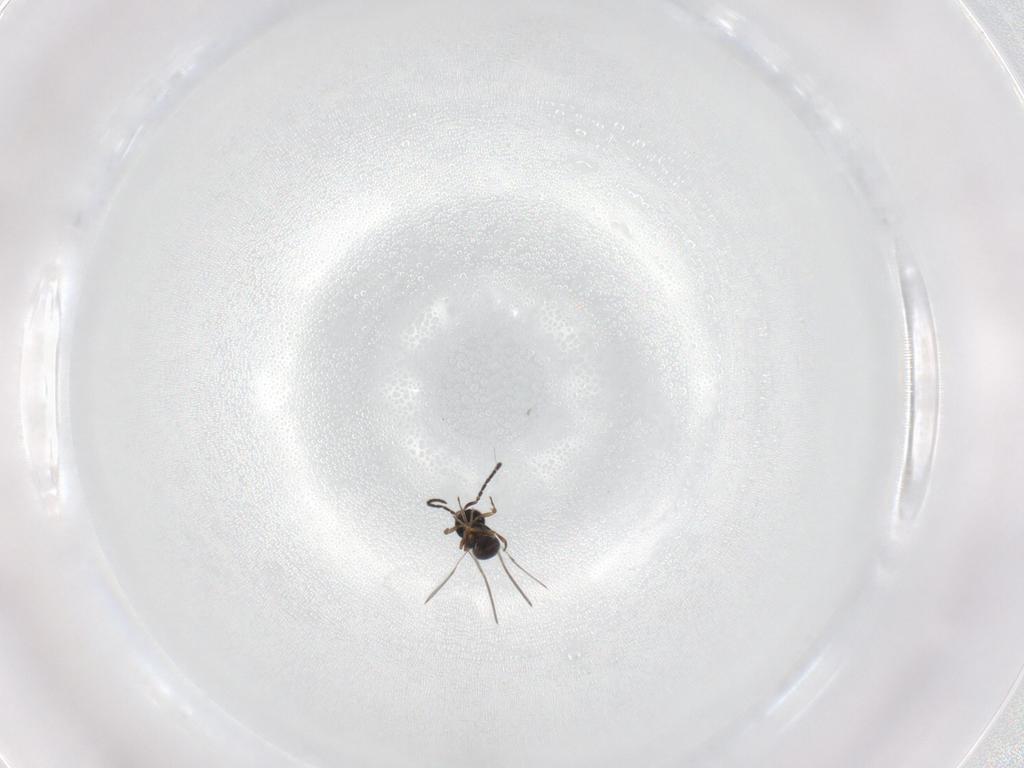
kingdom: Animalia
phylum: Arthropoda
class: Insecta
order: Hymenoptera
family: Scelionidae
